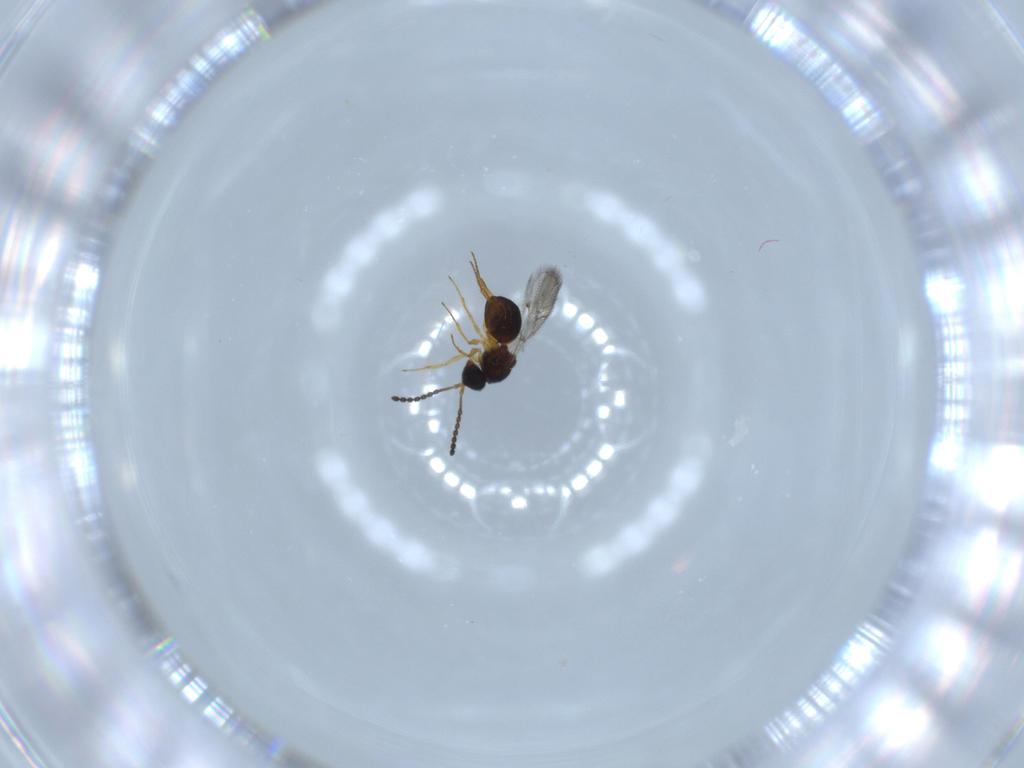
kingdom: Animalia
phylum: Arthropoda
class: Insecta
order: Hymenoptera
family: Figitidae
